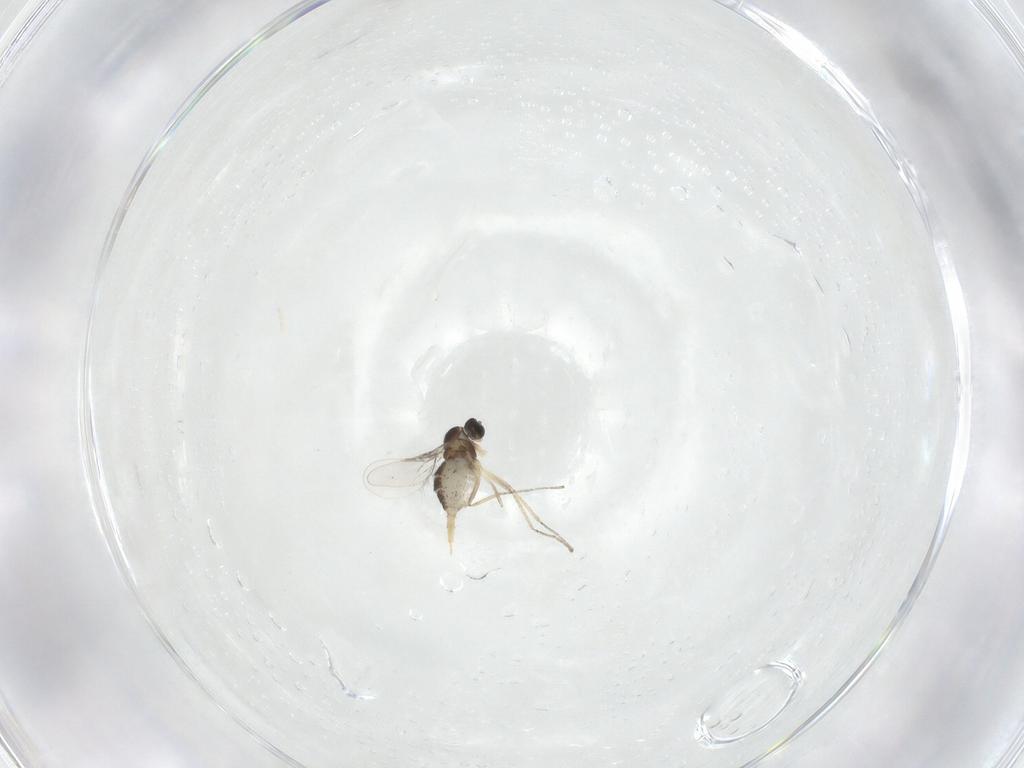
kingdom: Animalia
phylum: Arthropoda
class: Insecta
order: Diptera
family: Cecidomyiidae
